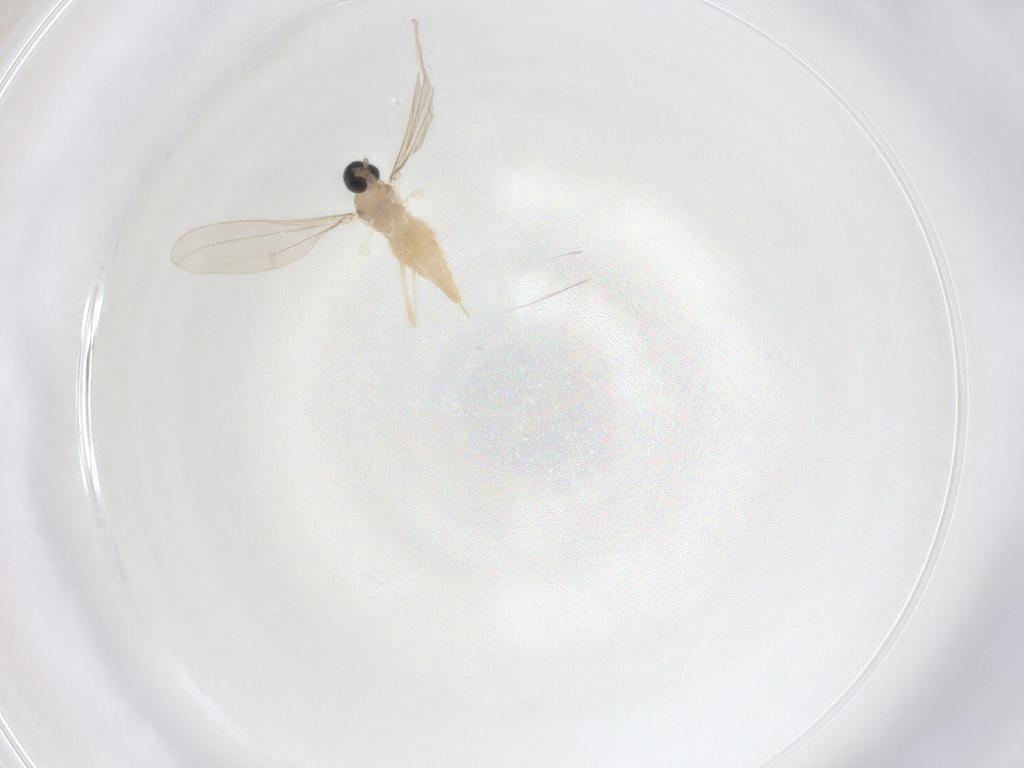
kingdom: Animalia
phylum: Arthropoda
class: Insecta
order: Diptera
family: Cecidomyiidae
